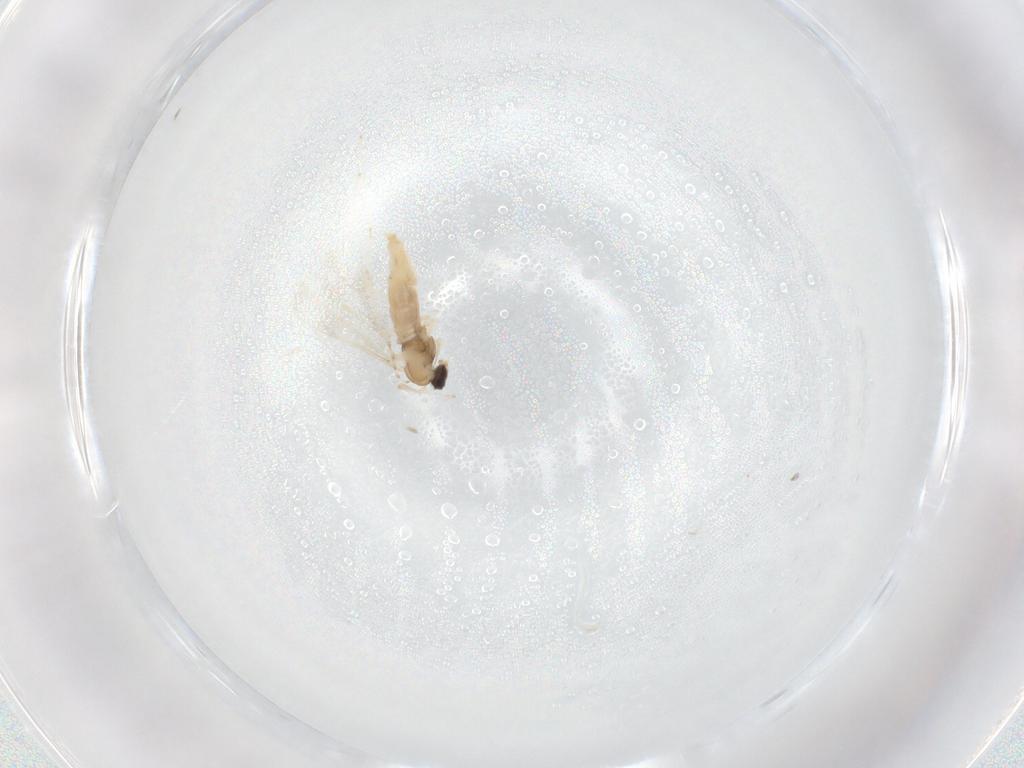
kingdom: Animalia
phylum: Arthropoda
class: Insecta
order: Diptera
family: Cecidomyiidae
